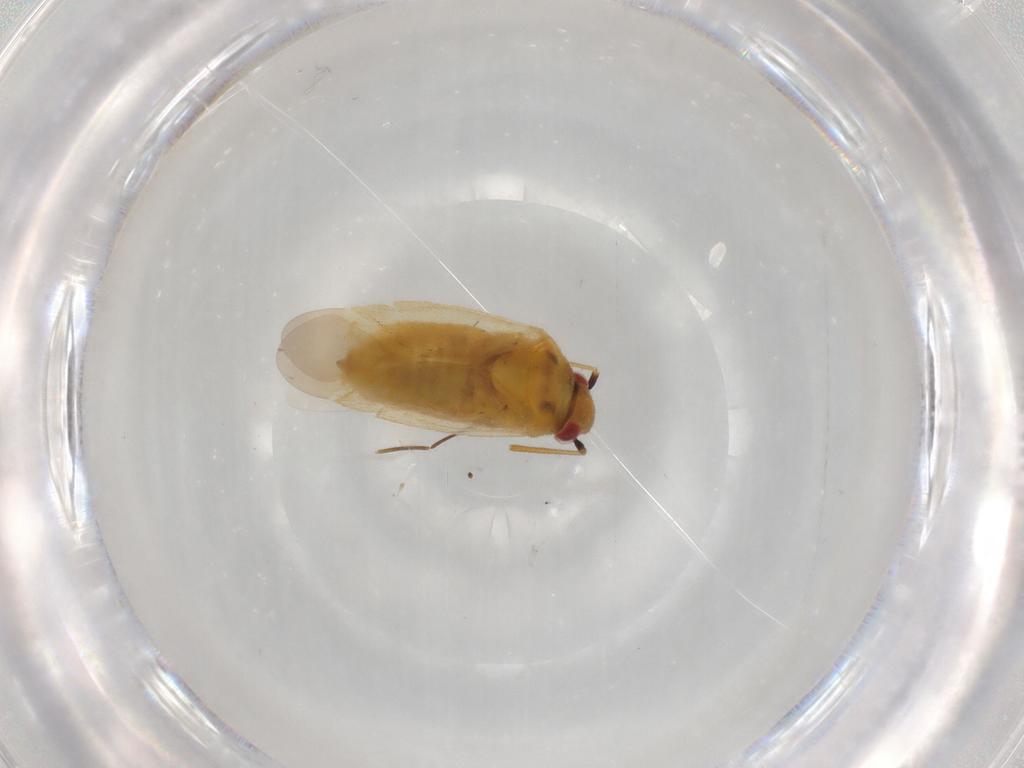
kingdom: Animalia
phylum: Arthropoda
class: Insecta
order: Hemiptera
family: Miridae
